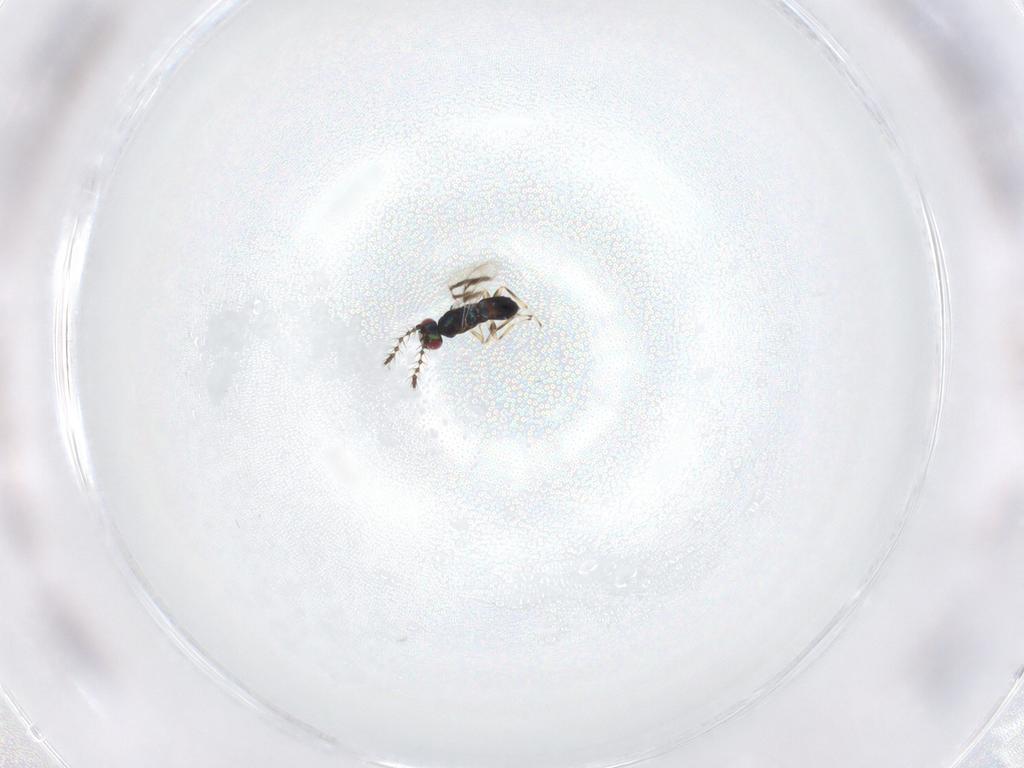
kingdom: Animalia
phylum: Arthropoda
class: Insecta
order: Hymenoptera
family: Eulophidae
